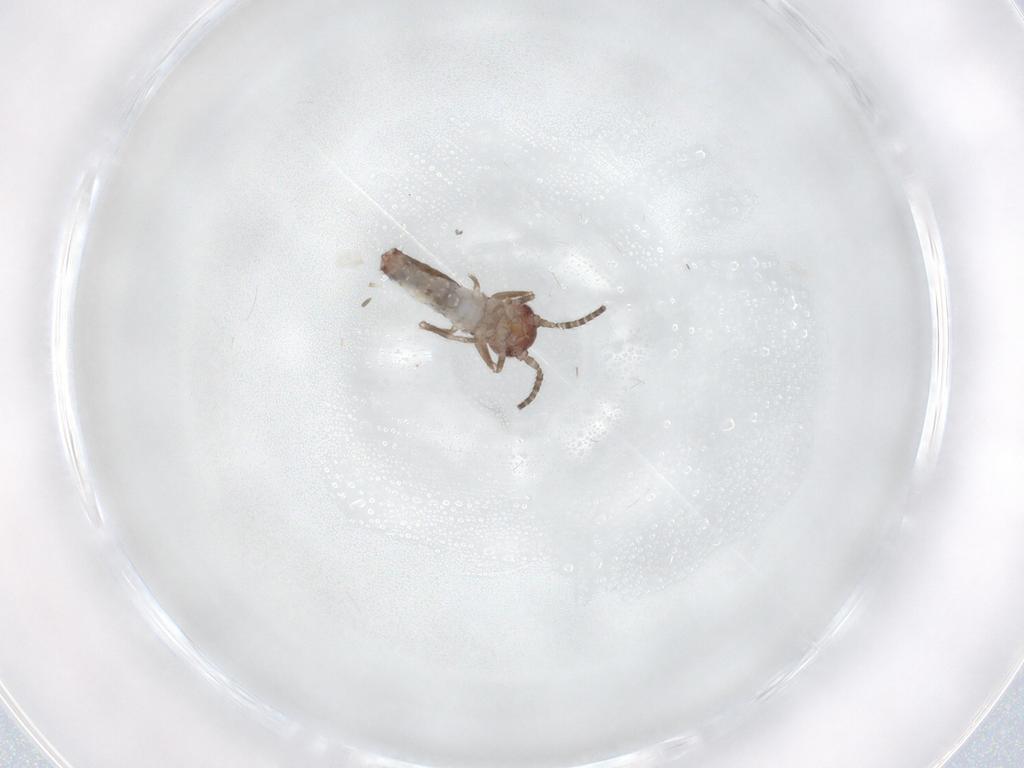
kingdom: Animalia
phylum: Arthropoda
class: Insecta
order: Orthoptera
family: Mogoplistidae
